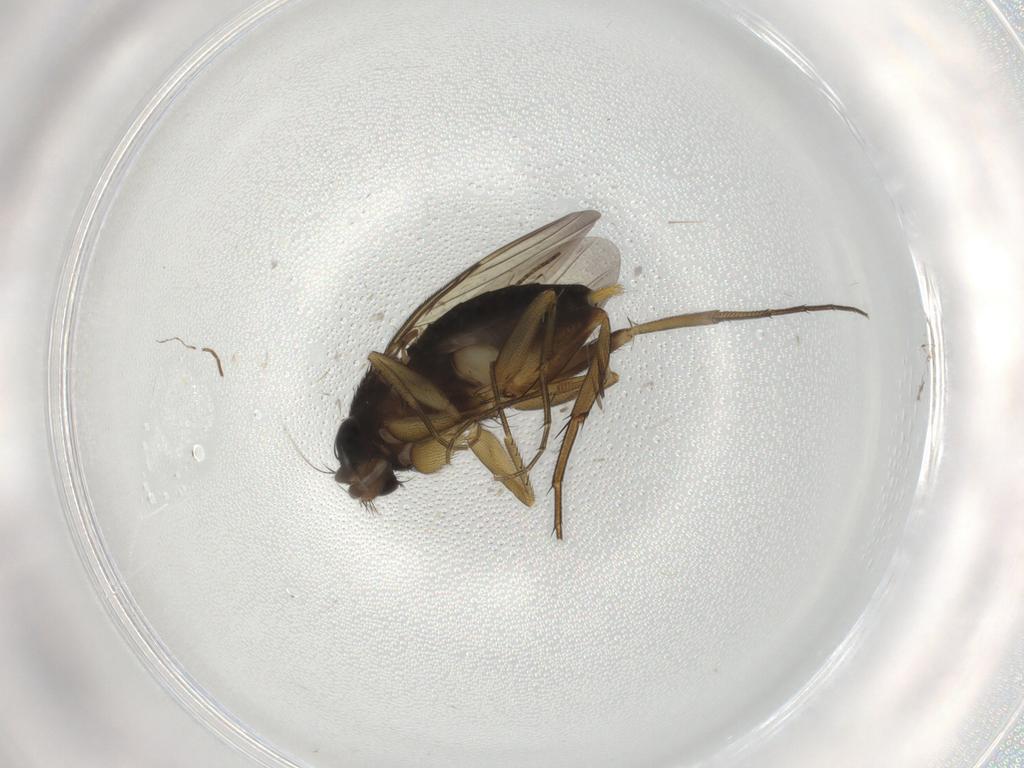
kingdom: Animalia
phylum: Arthropoda
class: Insecta
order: Diptera
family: Phoridae
